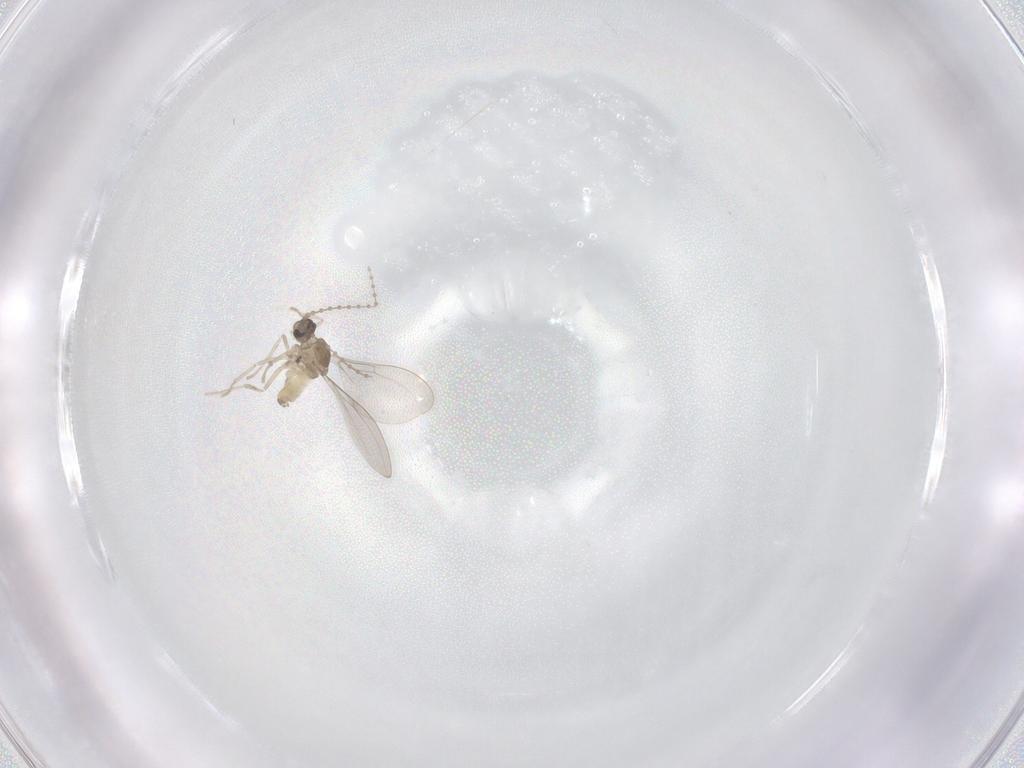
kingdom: Animalia
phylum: Arthropoda
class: Insecta
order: Diptera
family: Cecidomyiidae
